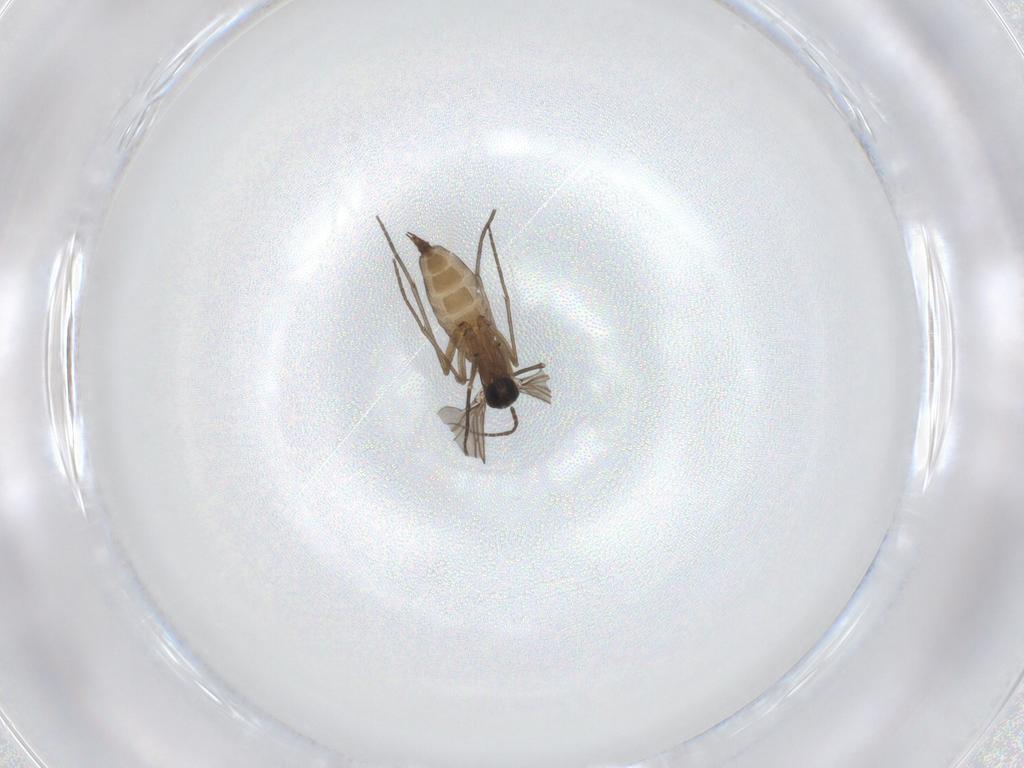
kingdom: Animalia
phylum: Arthropoda
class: Insecta
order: Diptera
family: Sciaridae
